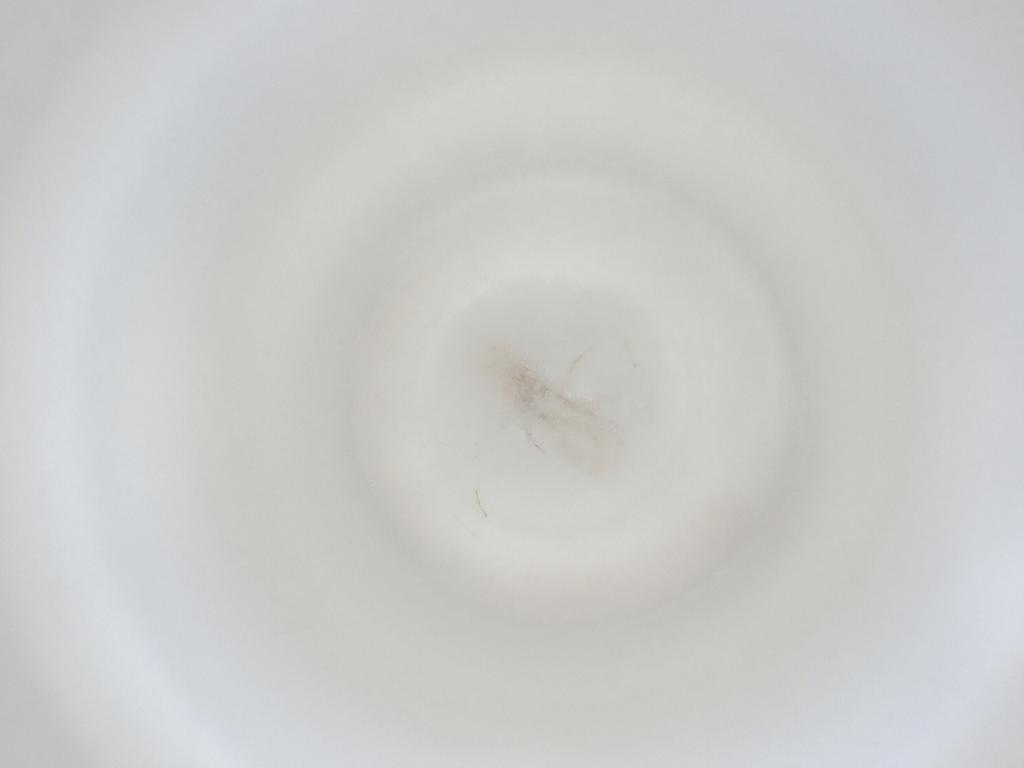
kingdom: Animalia
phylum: Arthropoda
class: Insecta
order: Diptera
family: Cecidomyiidae
